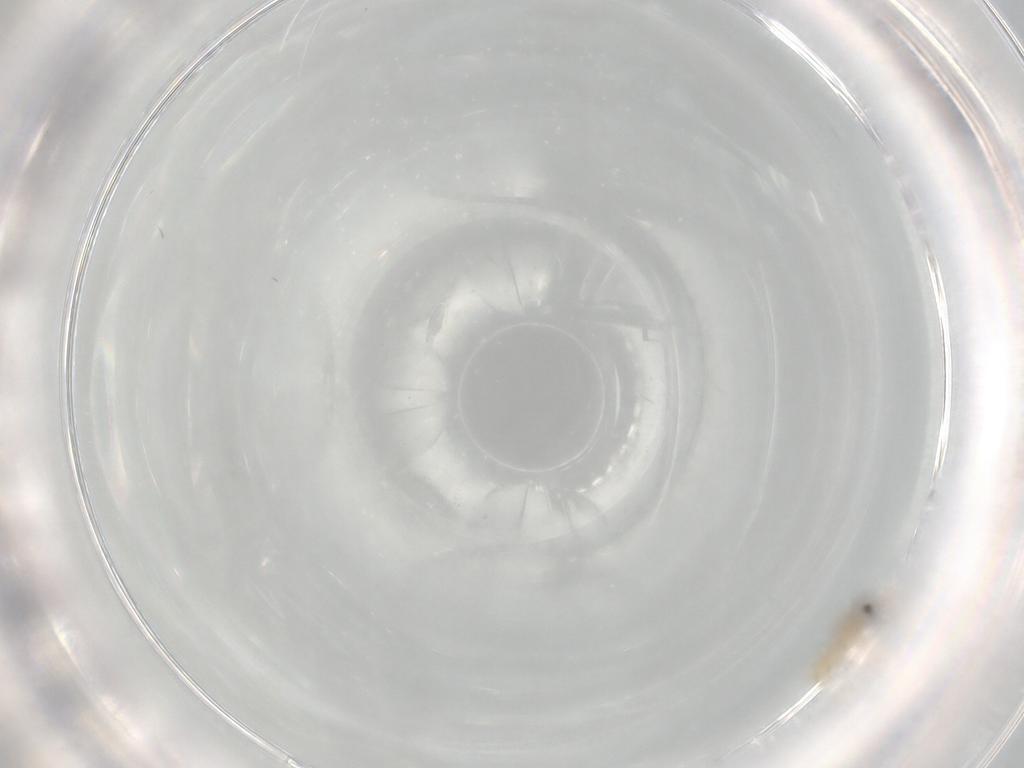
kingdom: Animalia
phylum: Arthropoda
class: Insecta
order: Diptera
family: Cecidomyiidae
